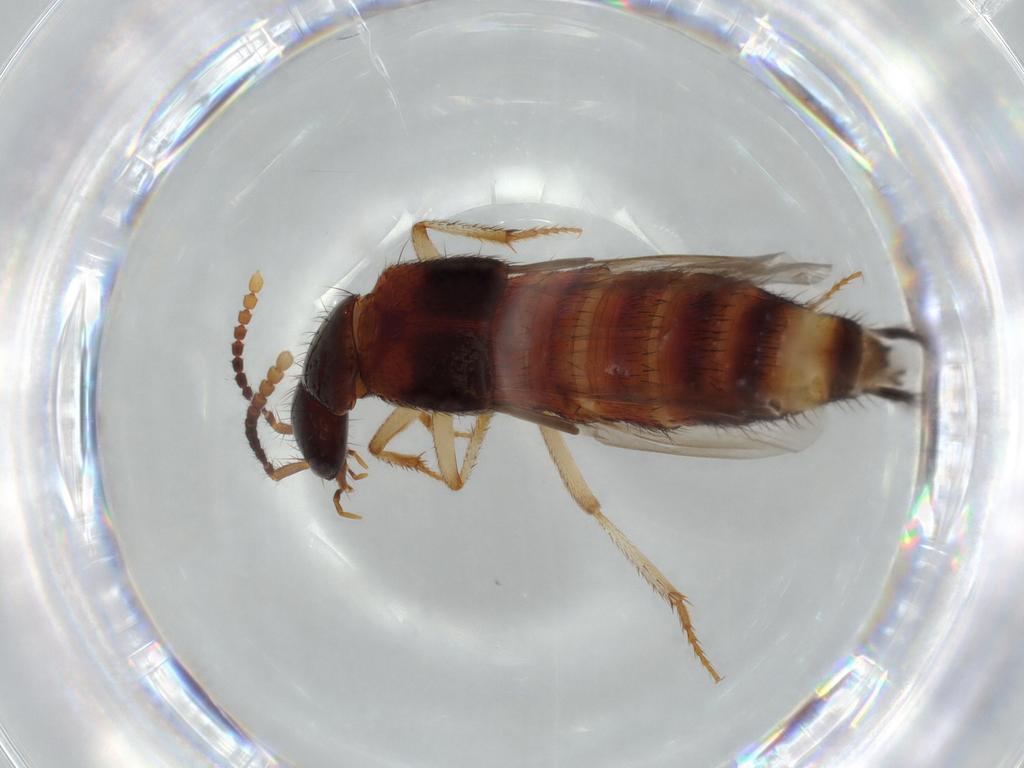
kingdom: Animalia
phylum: Arthropoda
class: Insecta
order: Coleoptera
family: Staphylinidae
